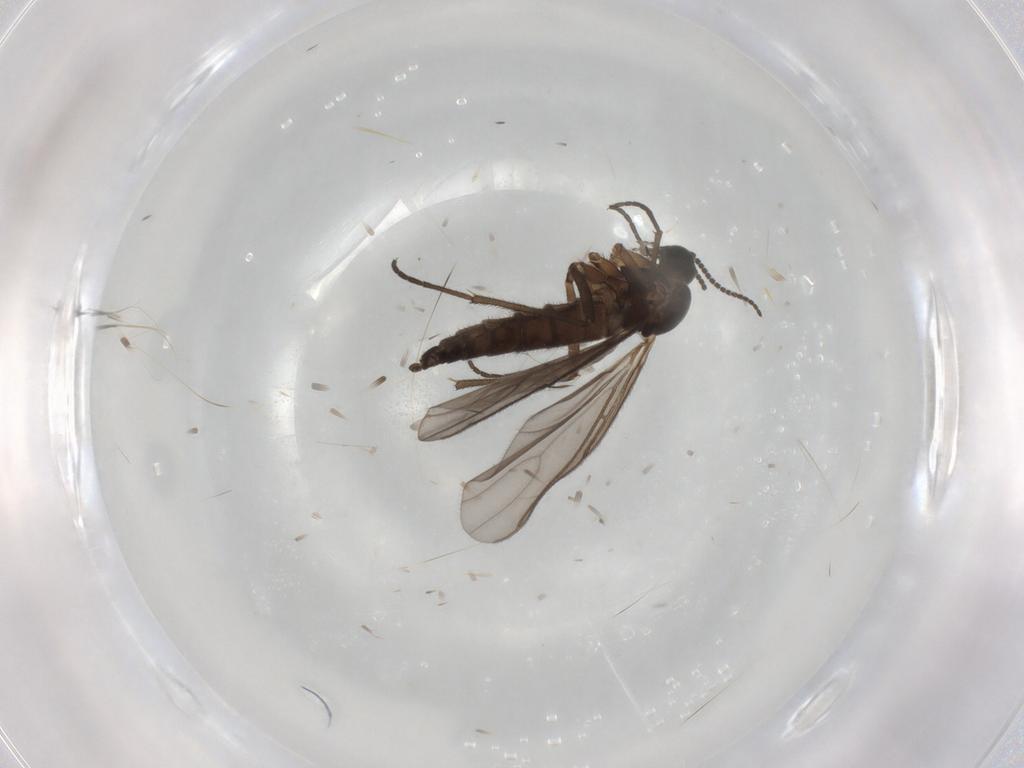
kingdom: Animalia
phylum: Arthropoda
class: Insecta
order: Diptera
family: Sciaridae
